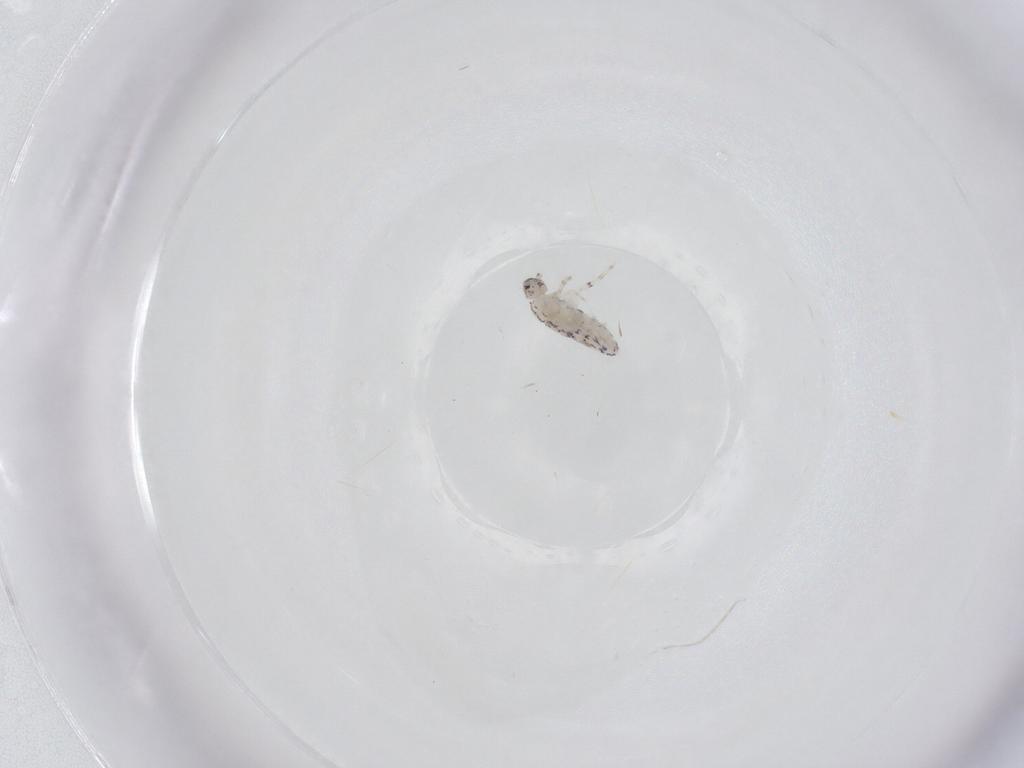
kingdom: Animalia
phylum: Arthropoda
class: Collembola
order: Entomobryomorpha
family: Entomobryidae
